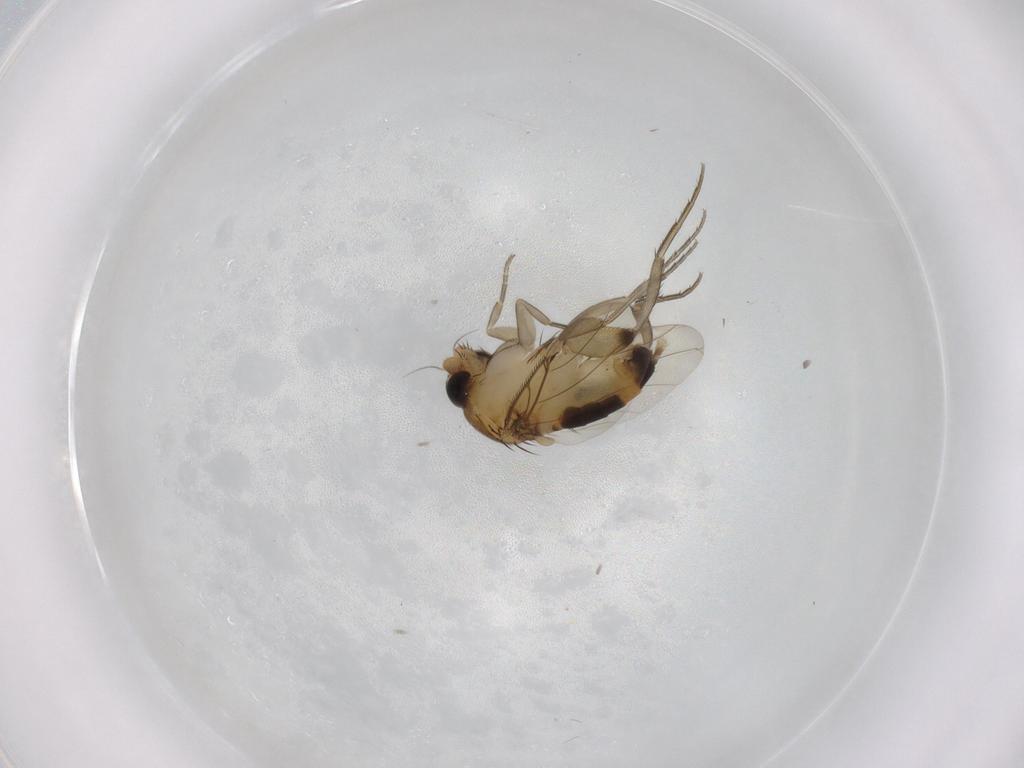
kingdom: Animalia
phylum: Arthropoda
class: Insecta
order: Diptera
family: Phoridae
